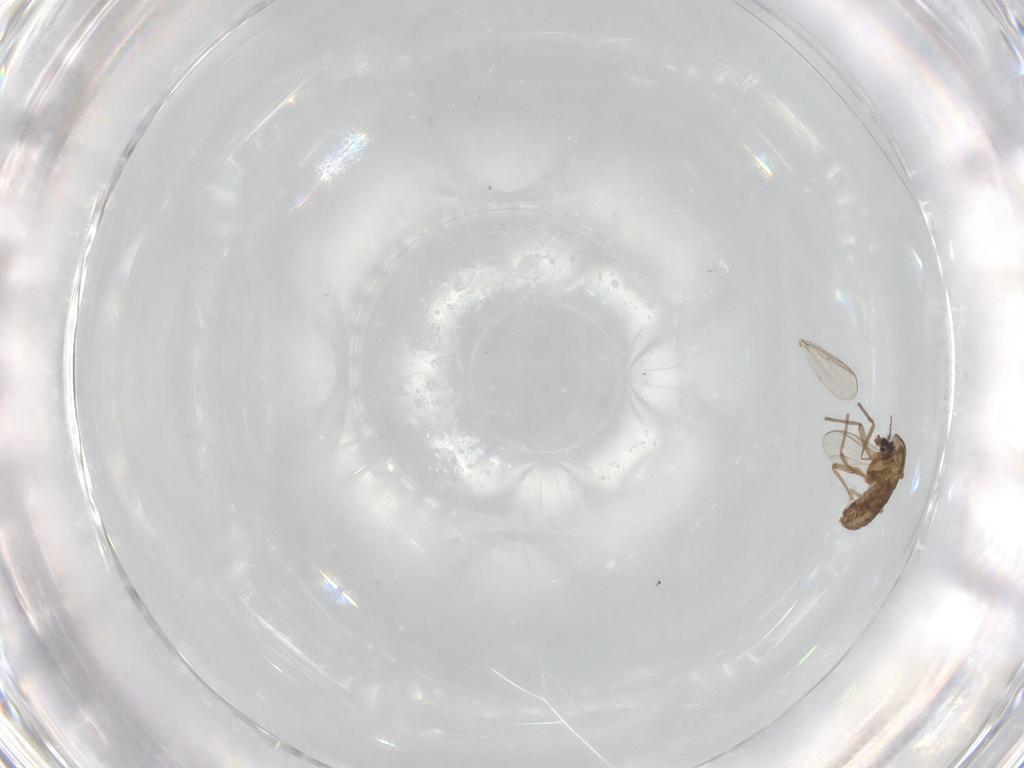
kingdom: Animalia
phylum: Arthropoda
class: Insecta
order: Diptera
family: Chironomidae
